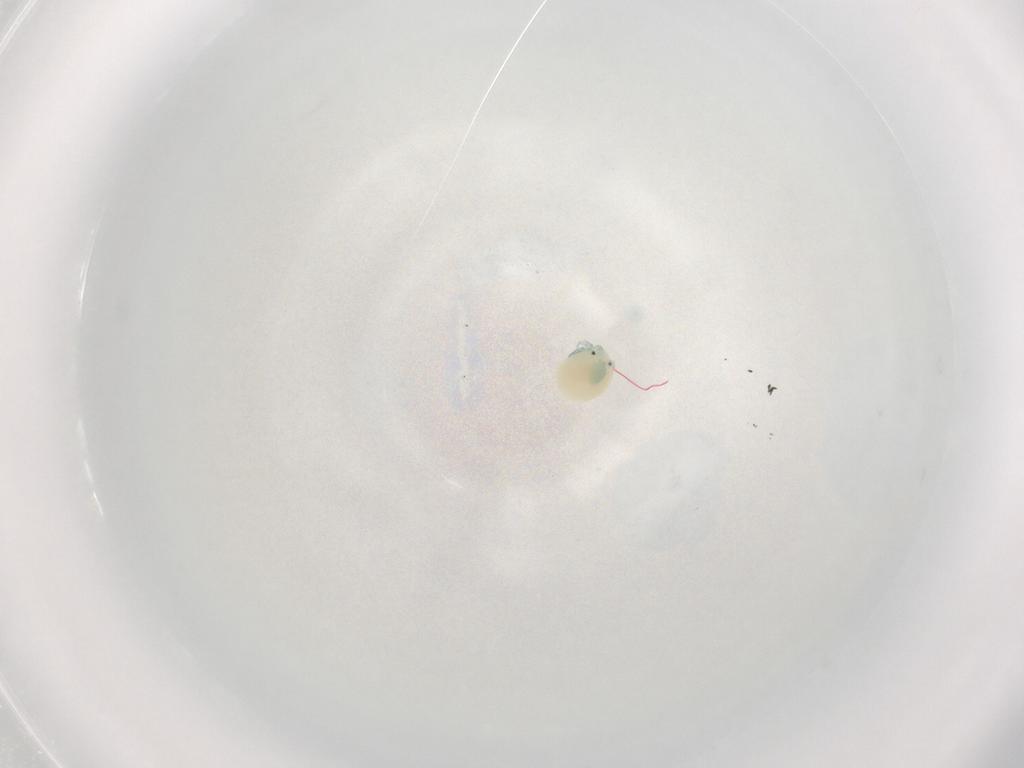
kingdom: Animalia
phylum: Arthropoda
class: Arachnida
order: Trombidiformes
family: Arrenuridae
